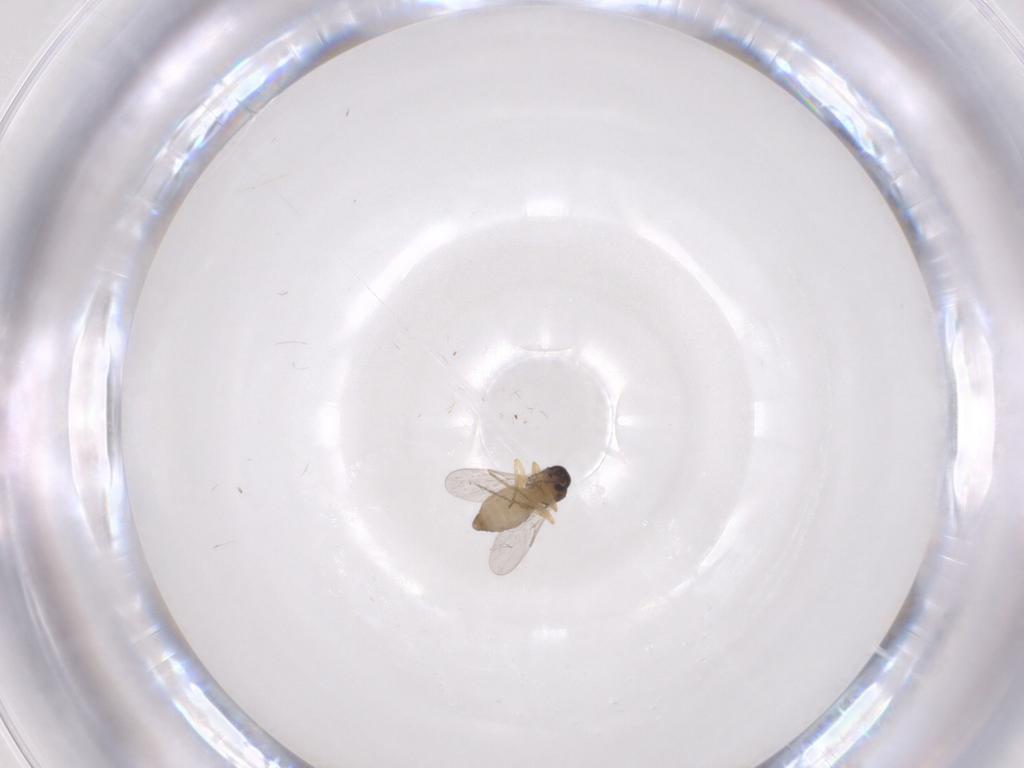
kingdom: Animalia
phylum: Arthropoda
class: Insecta
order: Diptera
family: Ceratopogonidae
